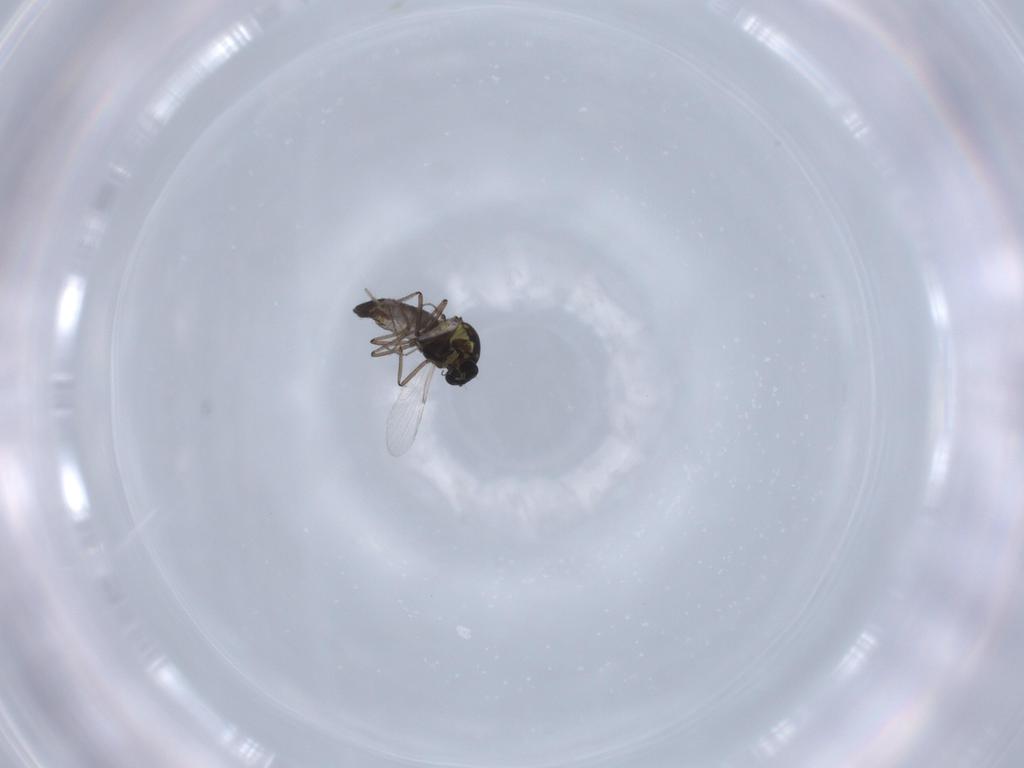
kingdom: Animalia
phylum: Arthropoda
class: Insecta
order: Diptera
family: Ceratopogonidae
